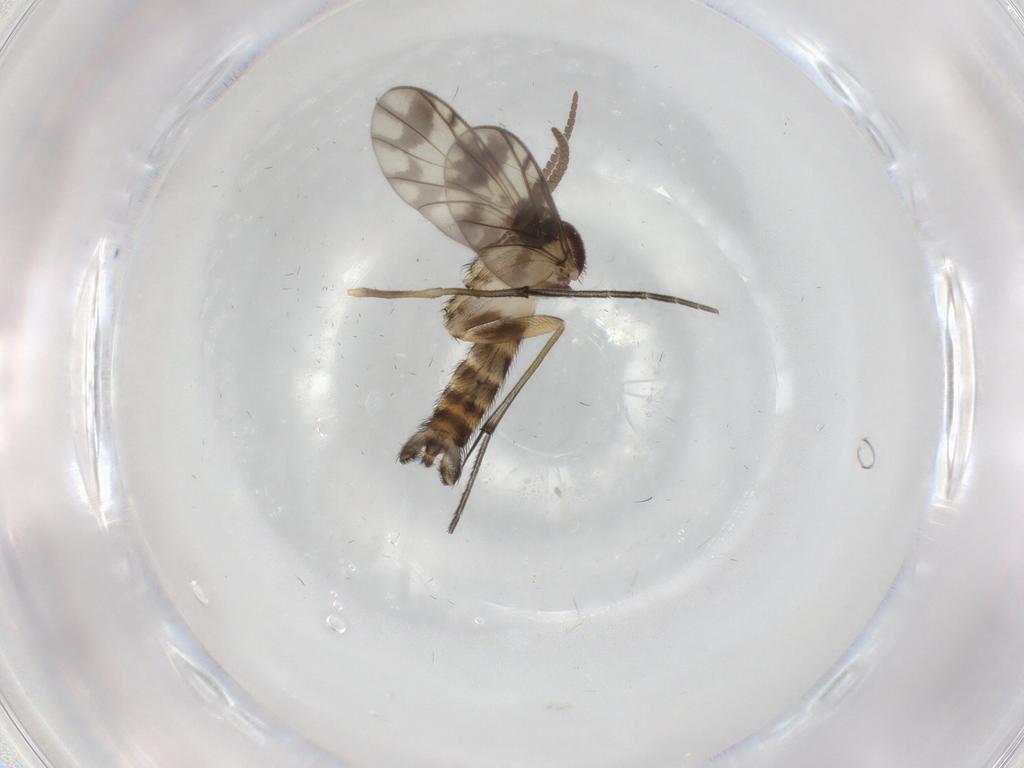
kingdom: Animalia
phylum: Arthropoda
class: Insecta
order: Diptera
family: Keroplatidae
